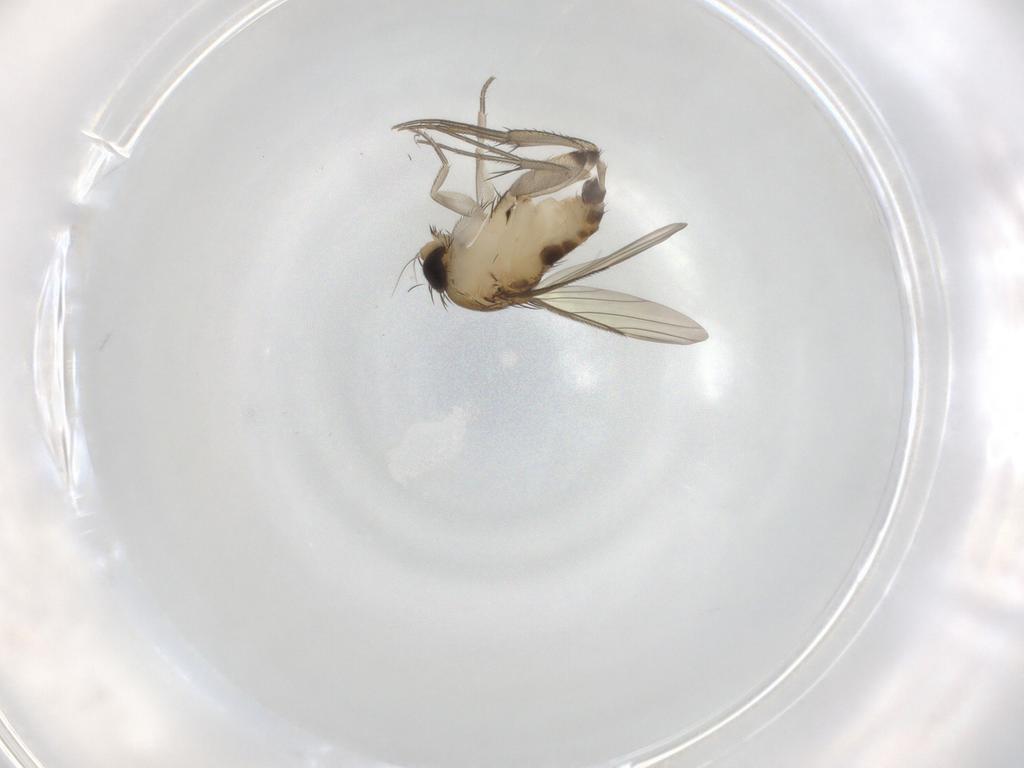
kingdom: Animalia
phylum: Arthropoda
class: Insecta
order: Diptera
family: Phoridae
